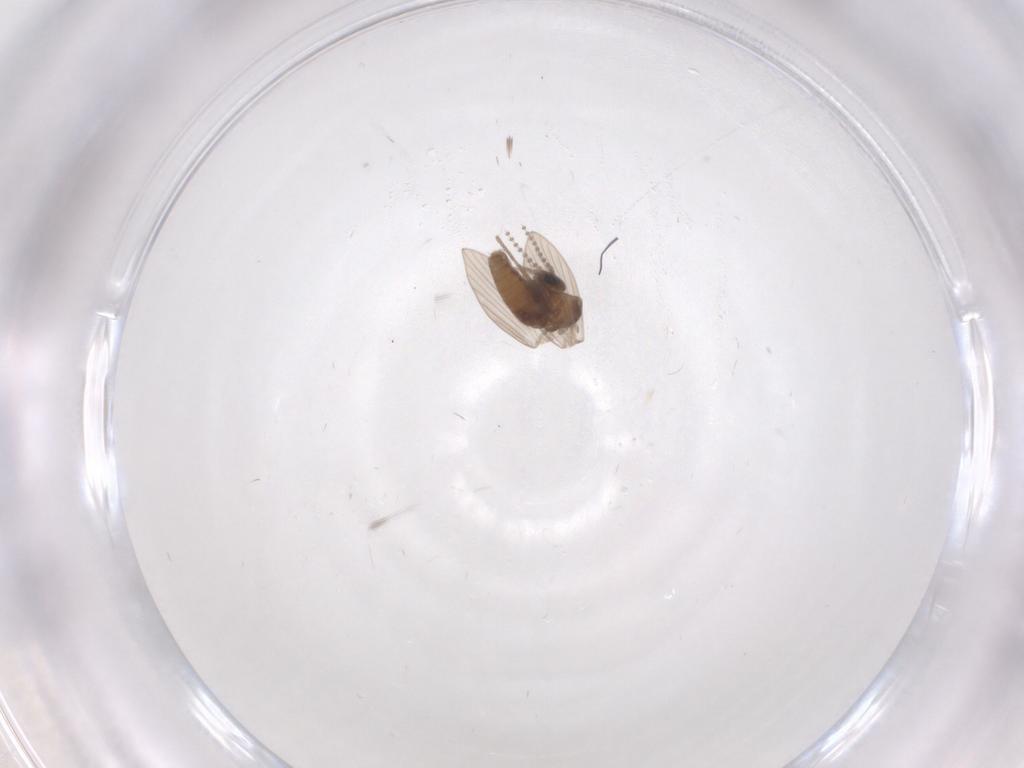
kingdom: Animalia
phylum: Arthropoda
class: Insecta
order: Diptera
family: Psychodidae
